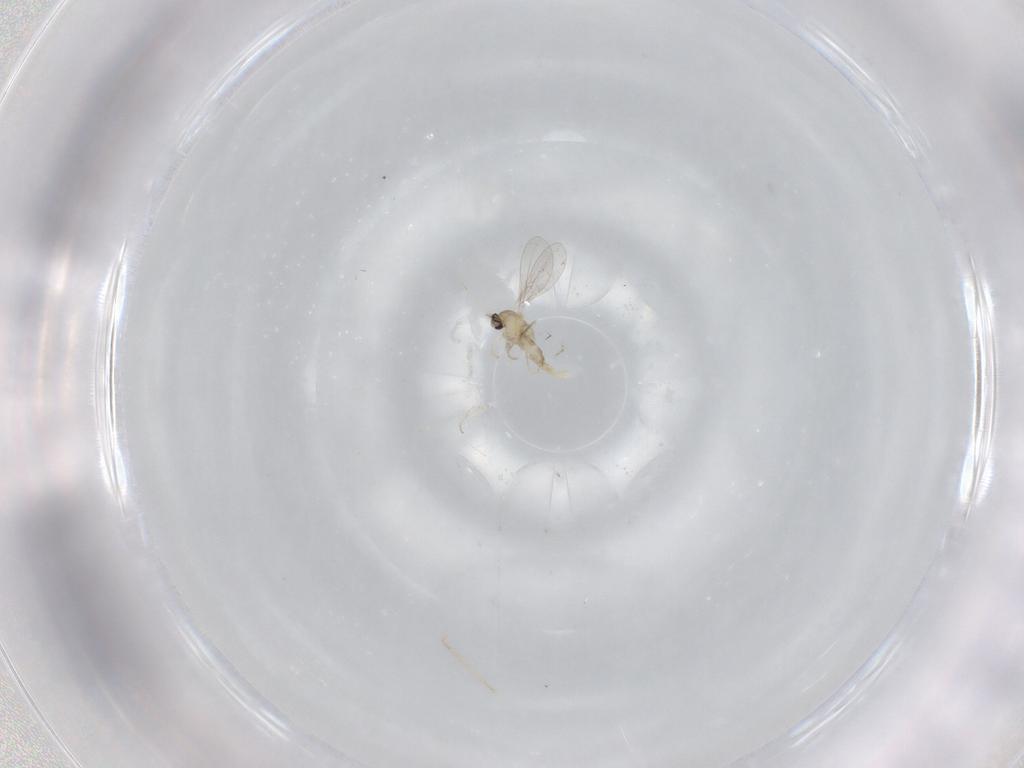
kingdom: Animalia
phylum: Arthropoda
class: Insecta
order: Diptera
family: Cecidomyiidae
